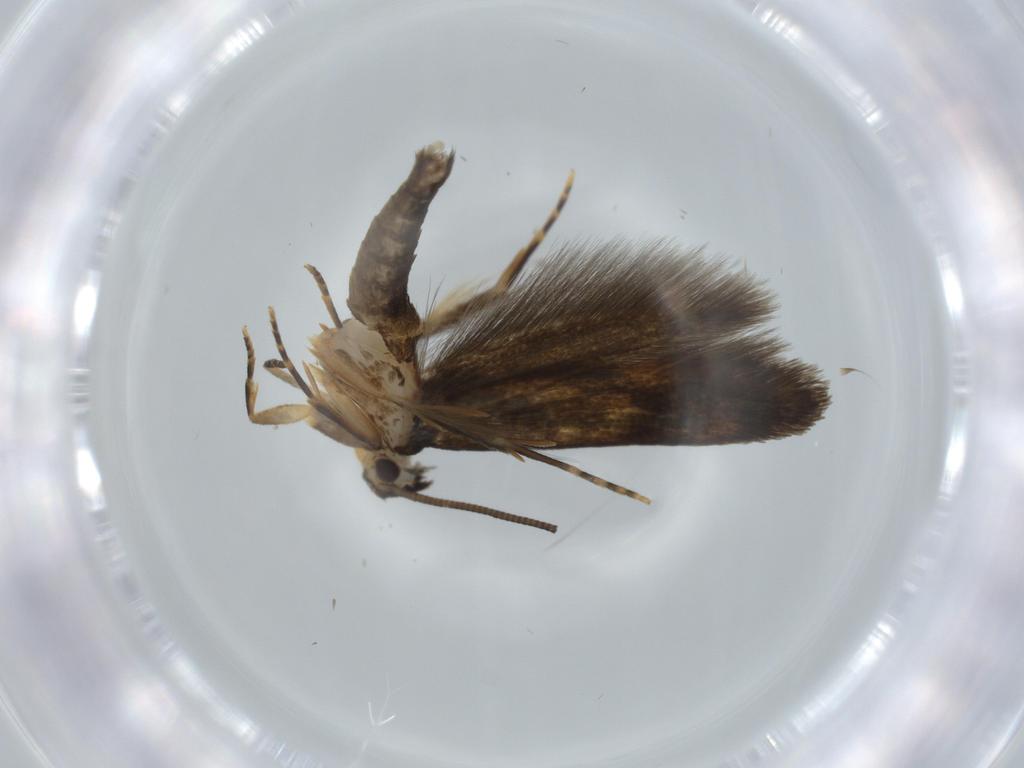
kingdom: Animalia
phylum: Arthropoda
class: Insecta
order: Lepidoptera
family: Tineidae
